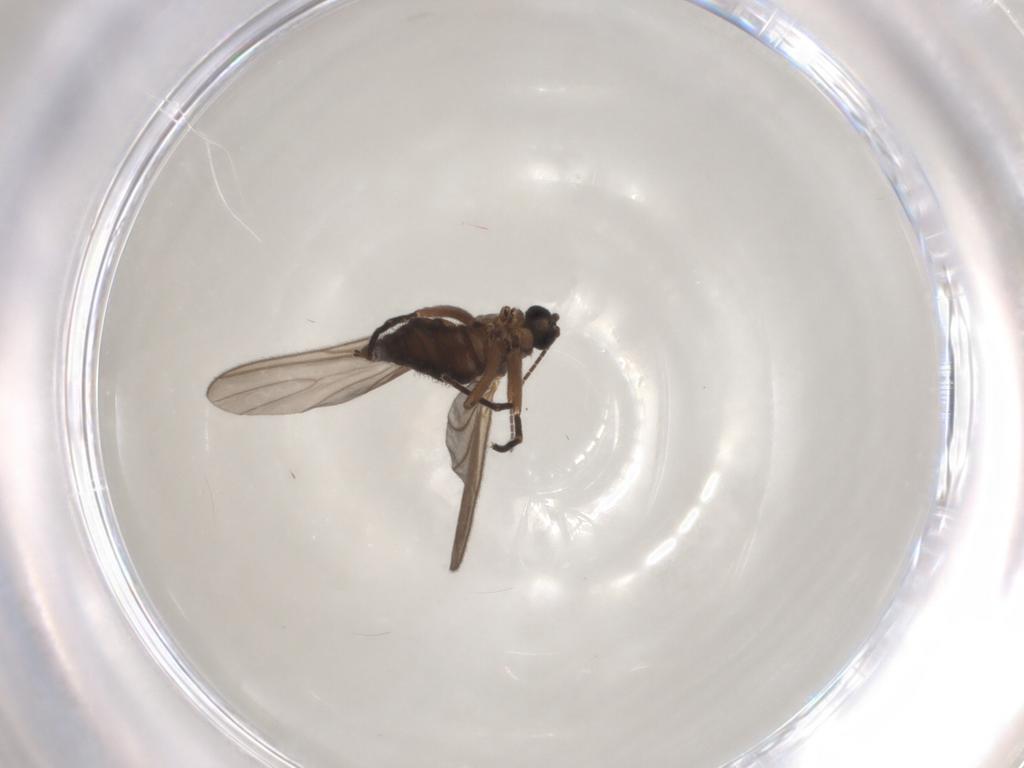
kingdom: Animalia
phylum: Arthropoda
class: Insecta
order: Diptera
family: Sciaridae
